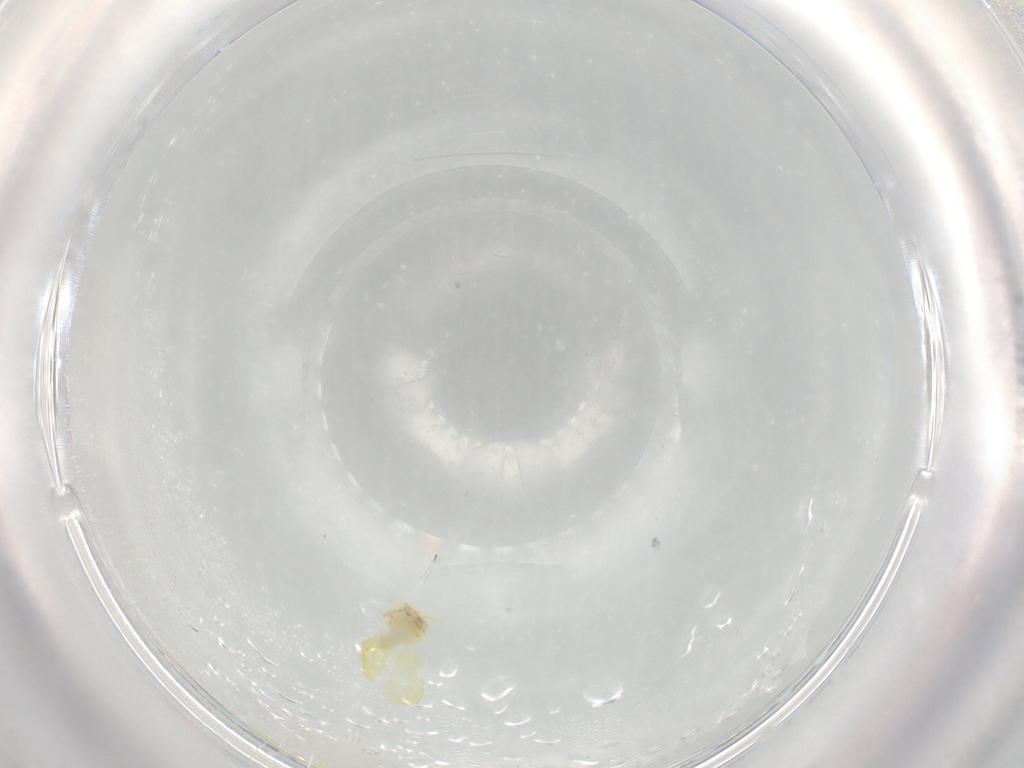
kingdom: Animalia
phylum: Arthropoda
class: Insecta
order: Hemiptera
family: Aleyrodidae
